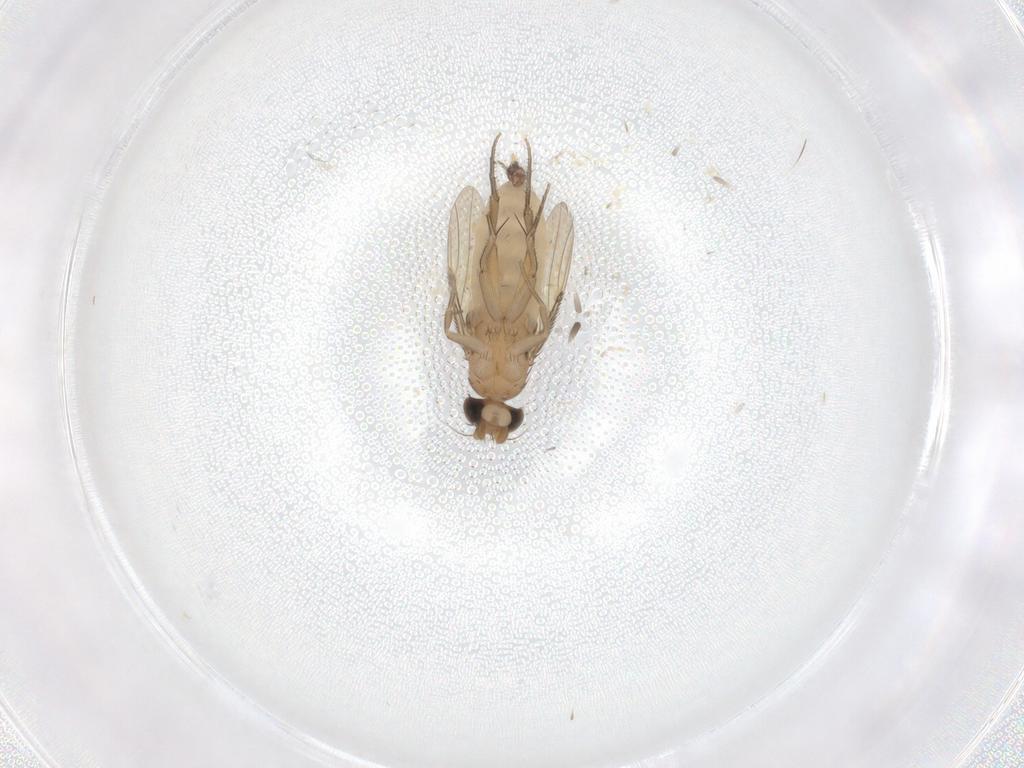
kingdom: Animalia
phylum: Arthropoda
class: Insecta
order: Diptera
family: Phoridae
